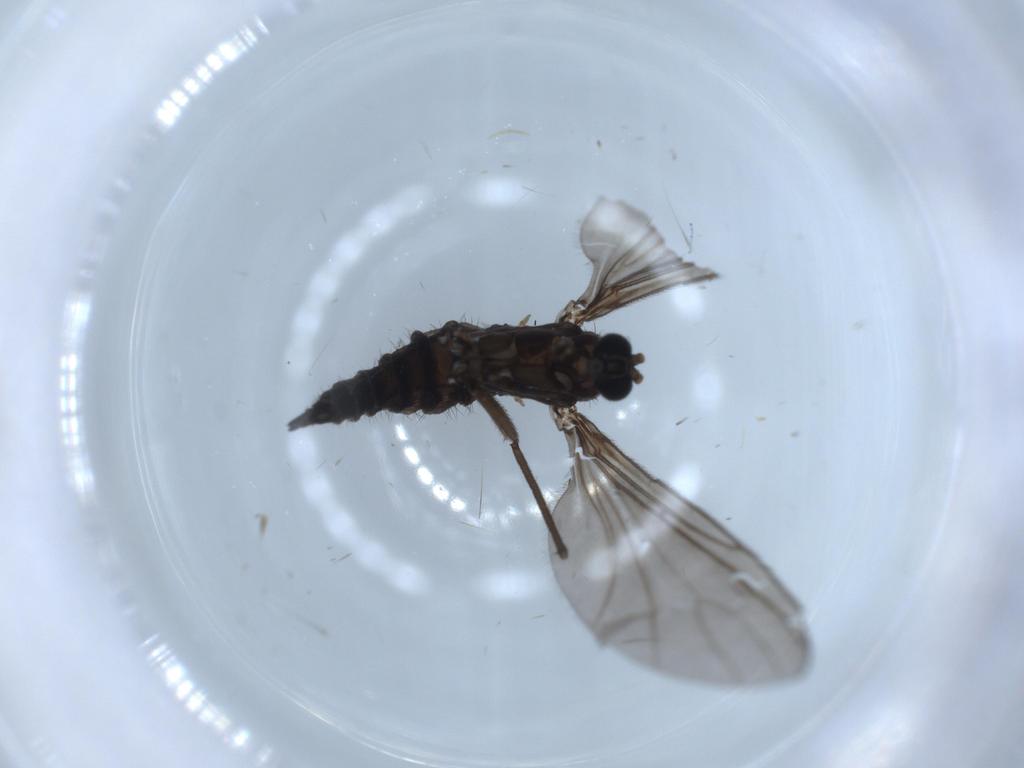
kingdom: Animalia
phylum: Arthropoda
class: Insecta
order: Diptera
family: Sciaridae
